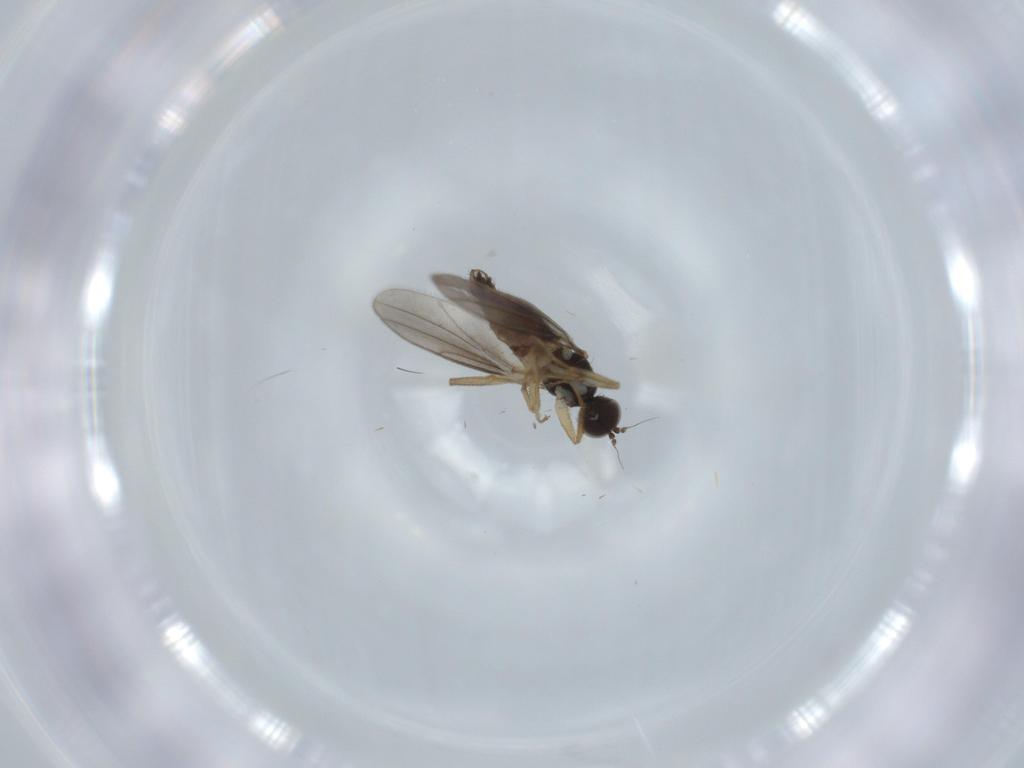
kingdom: Animalia
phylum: Arthropoda
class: Insecta
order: Diptera
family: Hybotidae
